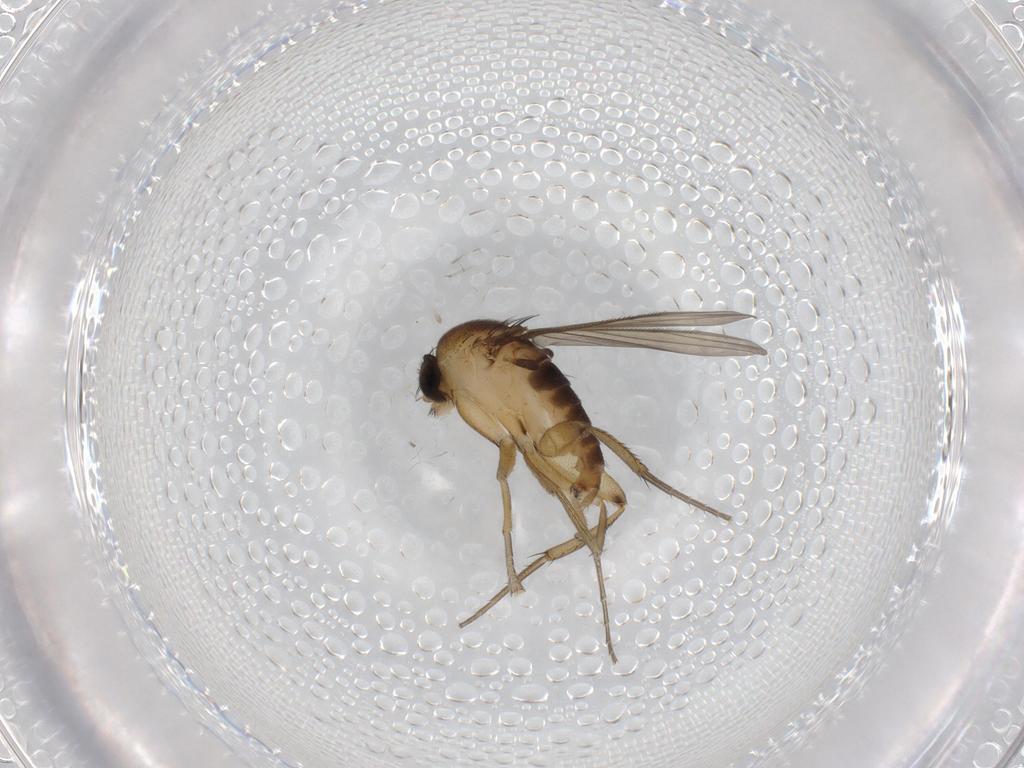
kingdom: Animalia
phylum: Arthropoda
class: Insecta
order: Diptera
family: Phoridae
